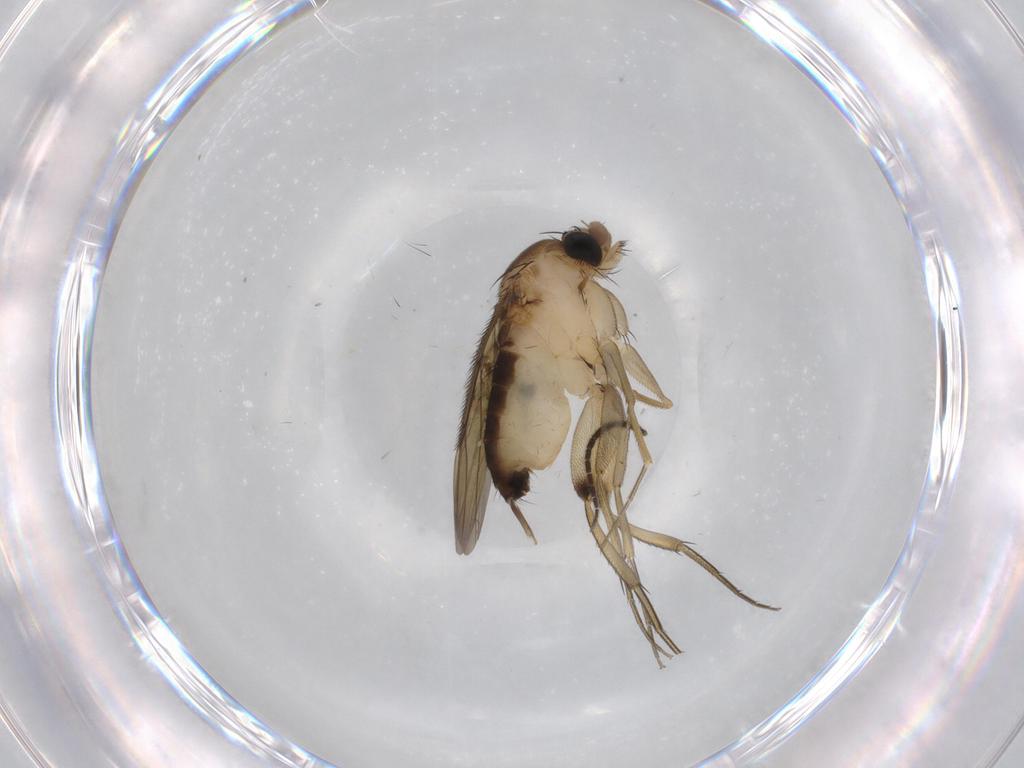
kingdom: Animalia
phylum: Arthropoda
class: Insecta
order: Diptera
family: Phoridae
